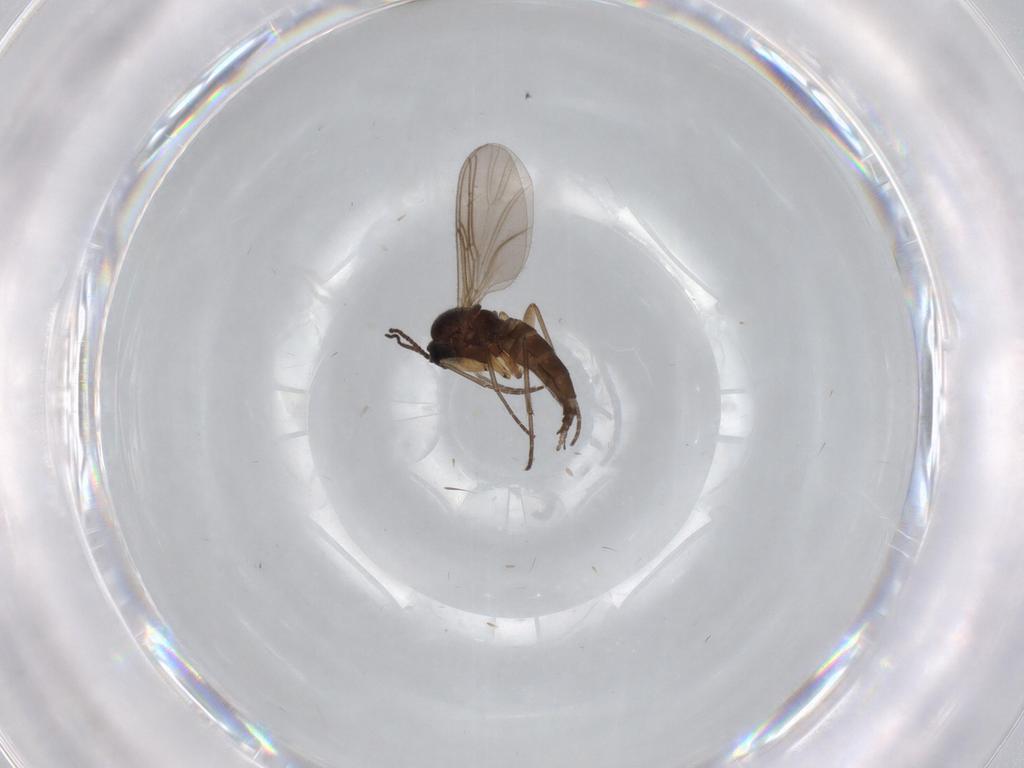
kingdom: Animalia
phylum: Arthropoda
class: Insecta
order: Diptera
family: Sciaridae
